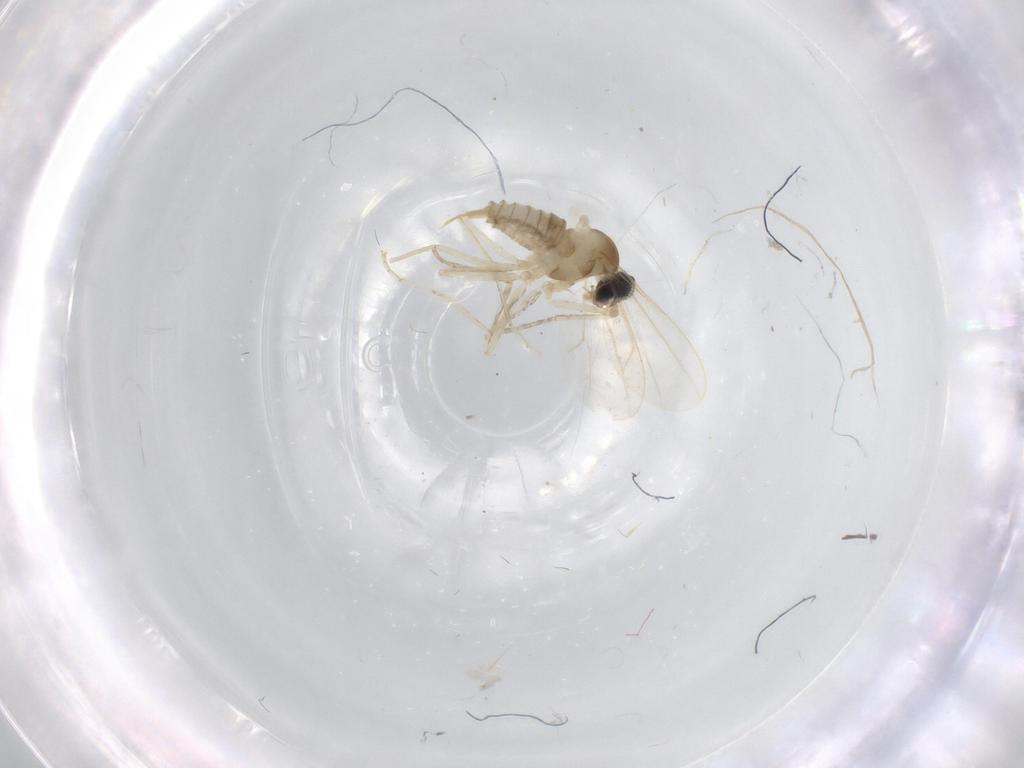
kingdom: Animalia
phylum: Arthropoda
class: Insecta
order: Diptera
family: Cecidomyiidae
